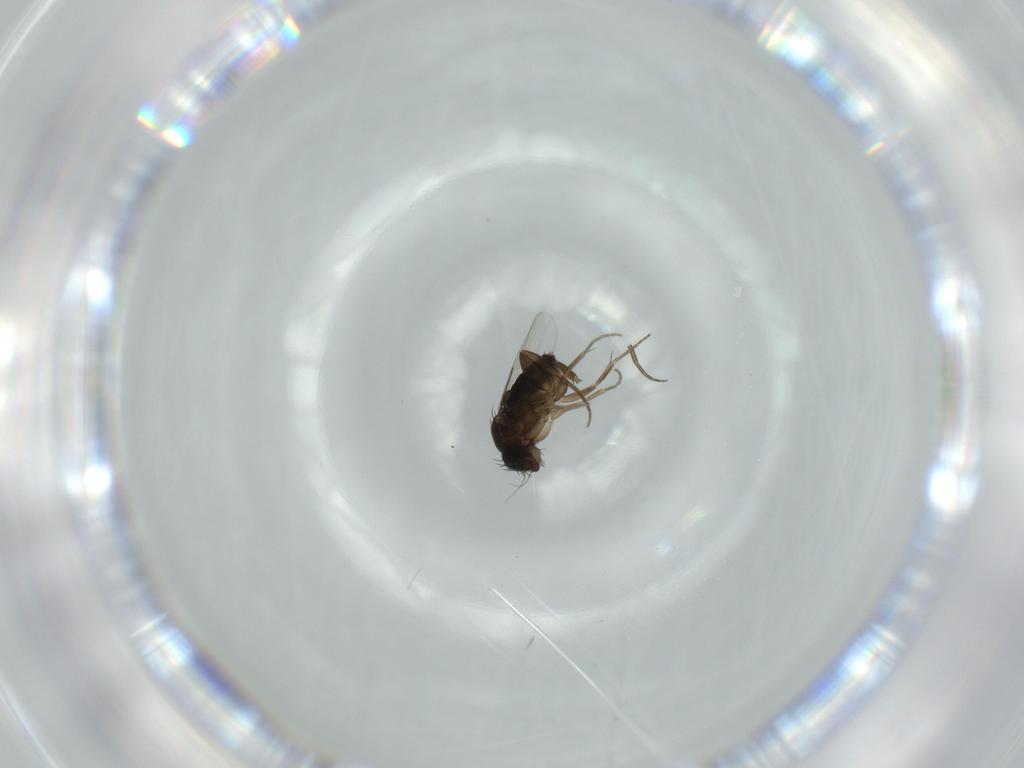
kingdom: Animalia
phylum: Arthropoda
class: Insecta
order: Diptera
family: Phoridae
